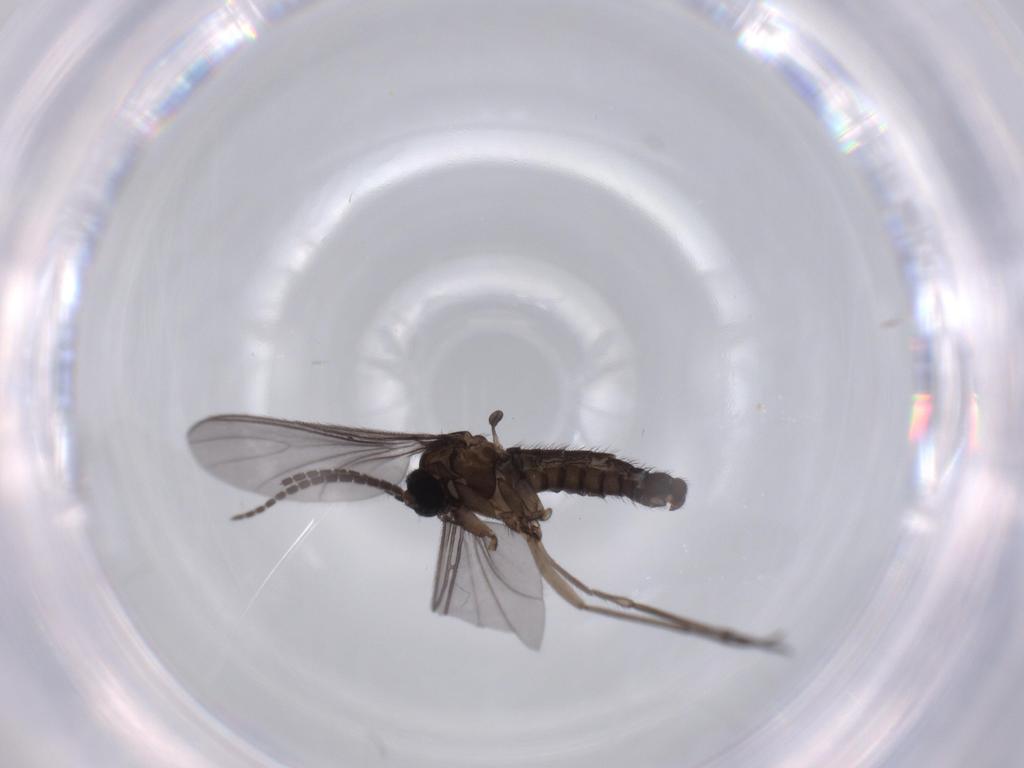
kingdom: Animalia
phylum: Arthropoda
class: Insecta
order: Diptera
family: Sciaridae
